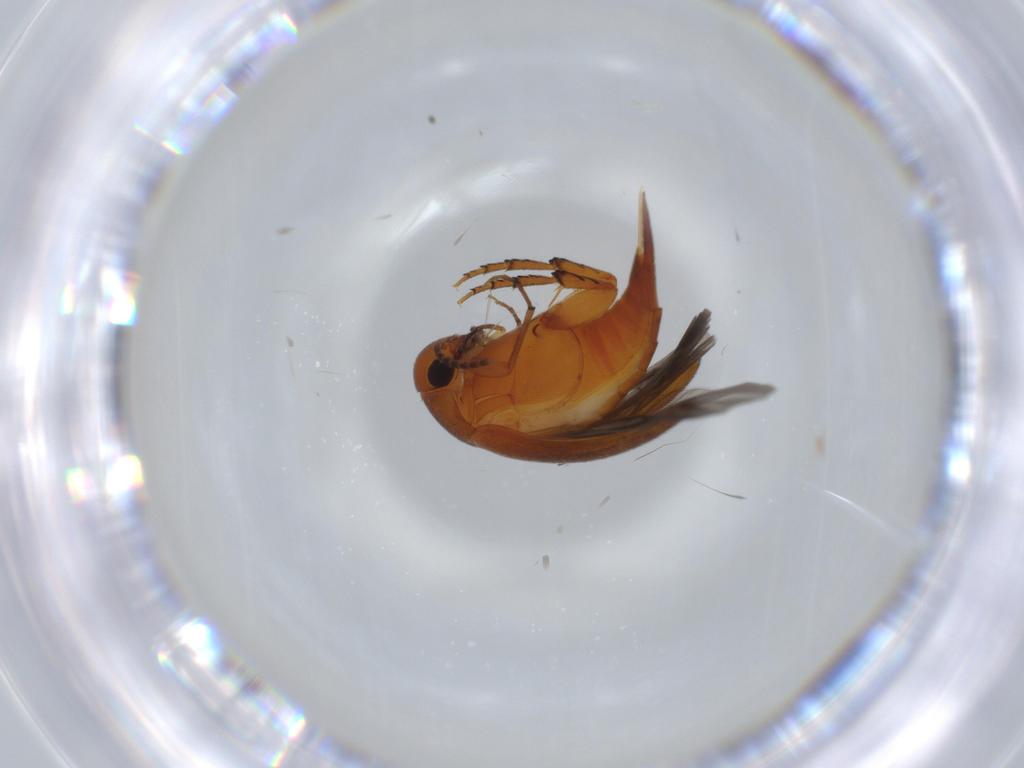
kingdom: Animalia
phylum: Arthropoda
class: Insecta
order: Coleoptera
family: Mordellidae
